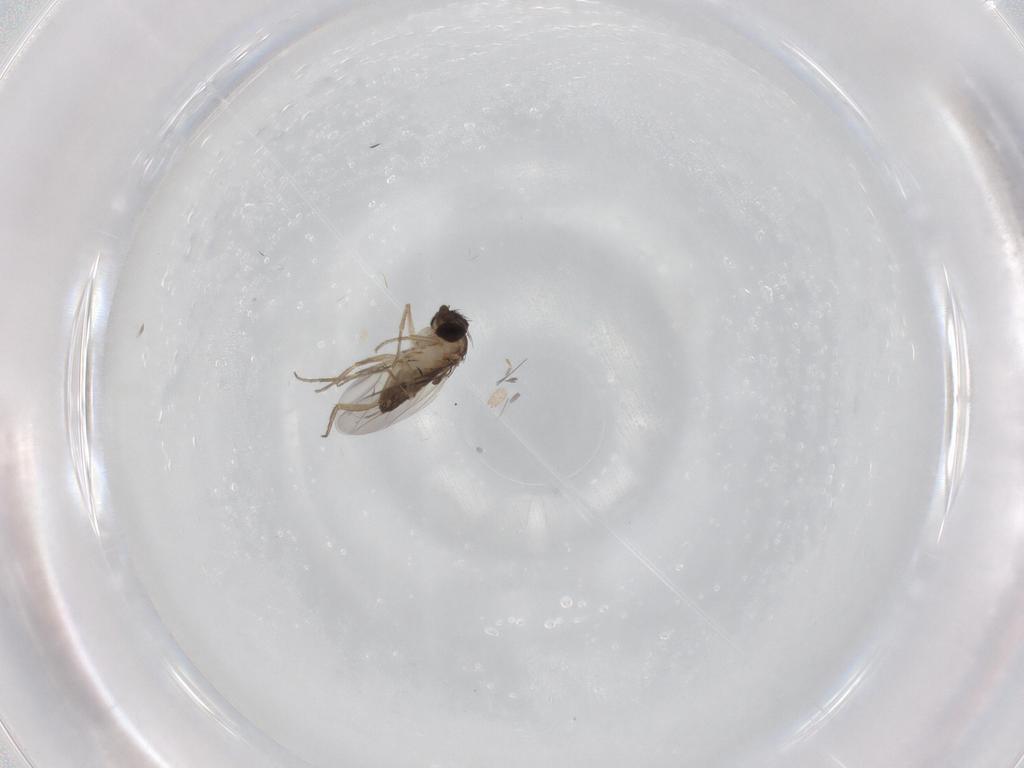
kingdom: Animalia
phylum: Arthropoda
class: Insecta
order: Diptera
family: Phoridae
